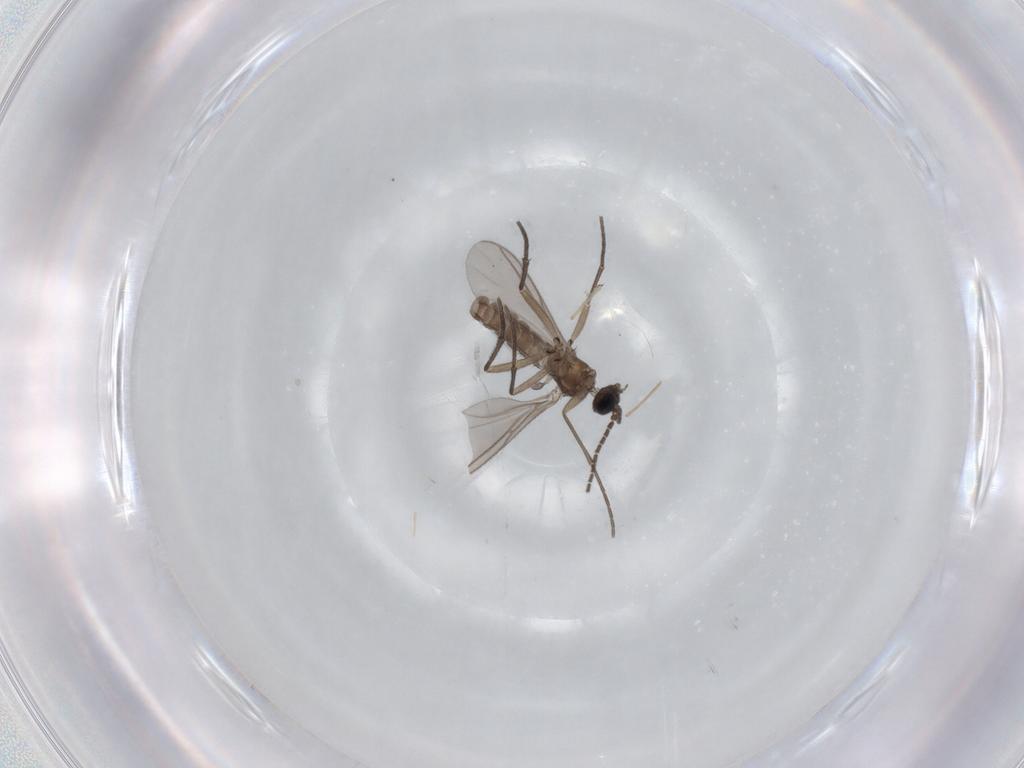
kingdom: Animalia
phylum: Arthropoda
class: Insecta
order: Diptera
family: Sciaridae
